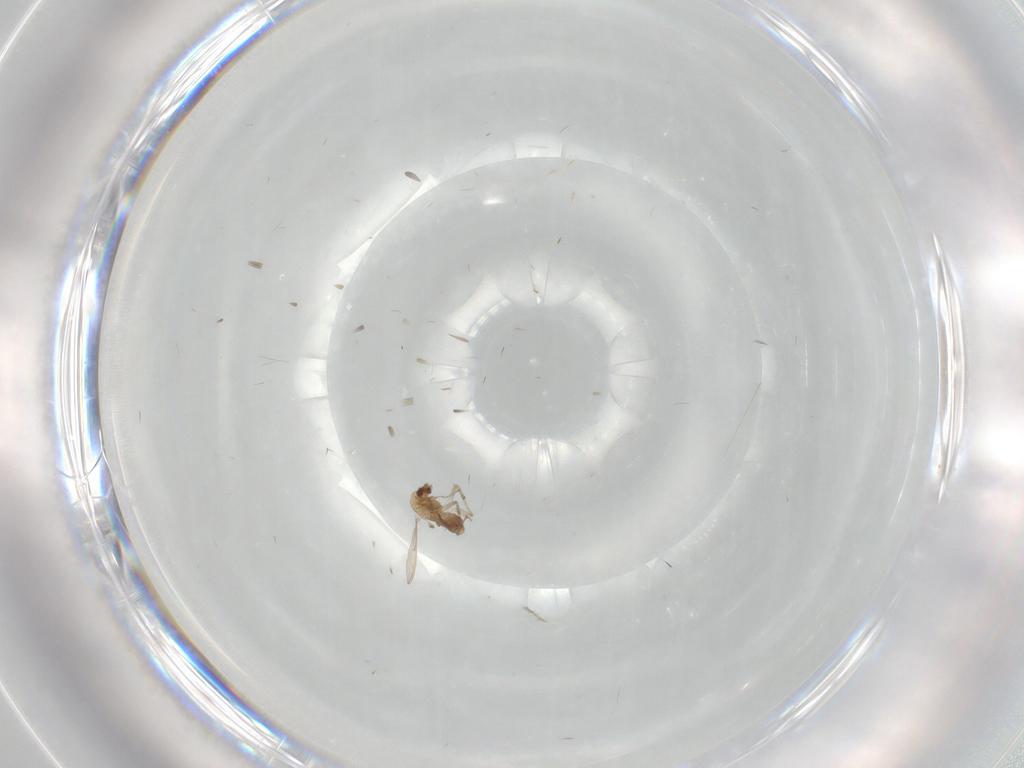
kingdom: Animalia
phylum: Arthropoda
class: Insecta
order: Diptera
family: Chironomidae
